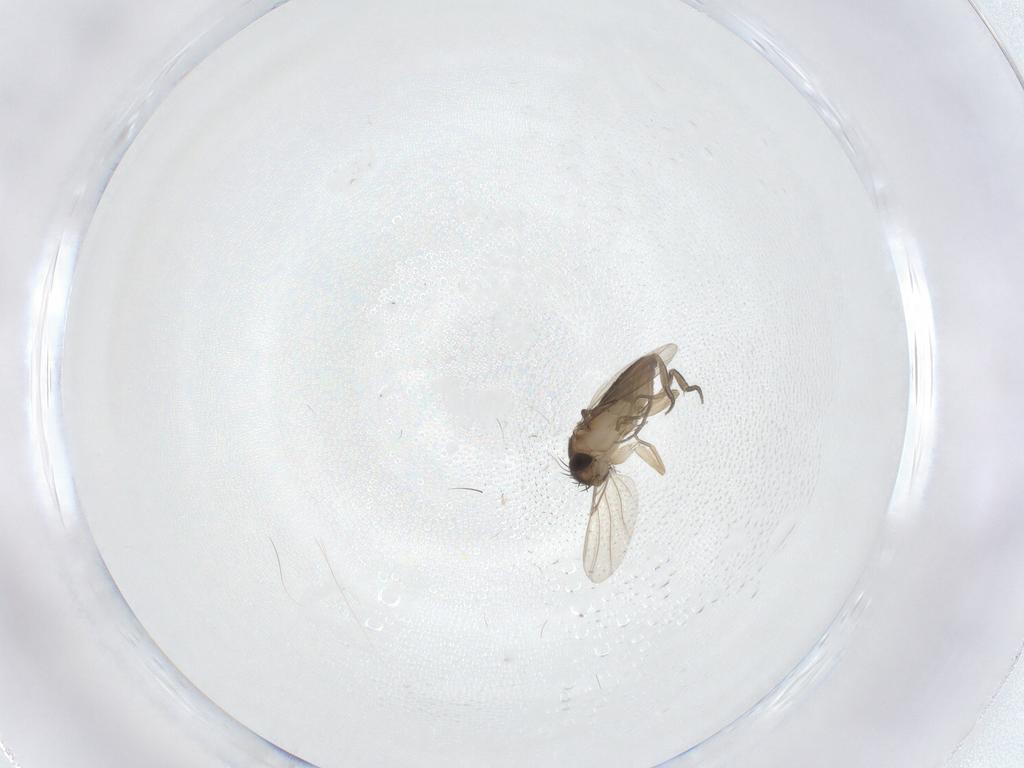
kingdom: Animalia
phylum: Arthropoda
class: Insecta
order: Diptera
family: Phoridae
